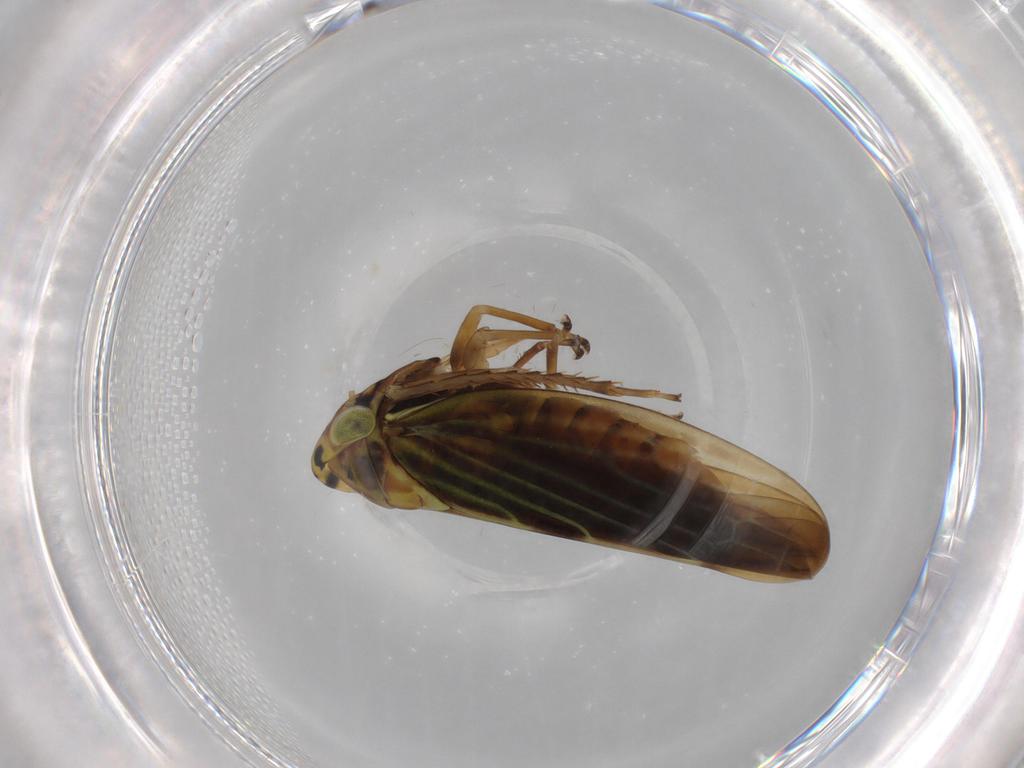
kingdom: Animalia
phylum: Arthropoda
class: Insecta
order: Hemiptera
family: Cicadellidae
